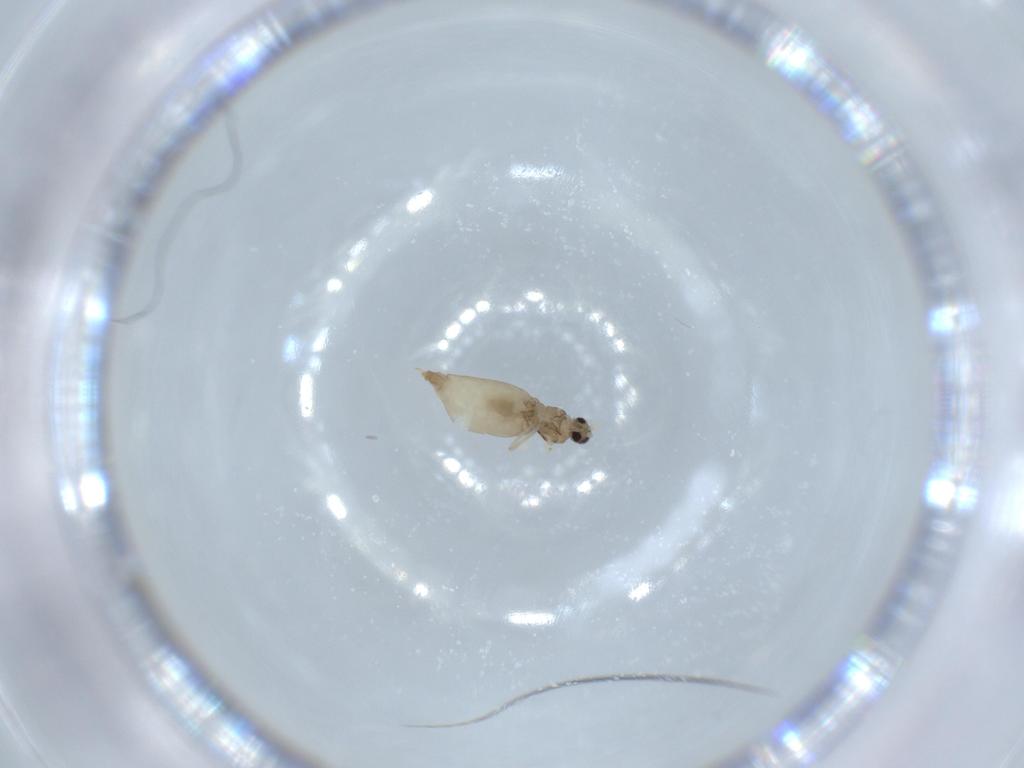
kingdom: Animalia
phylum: Arthropoda
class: Insecta
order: Diptera
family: Cecidomyiidae
